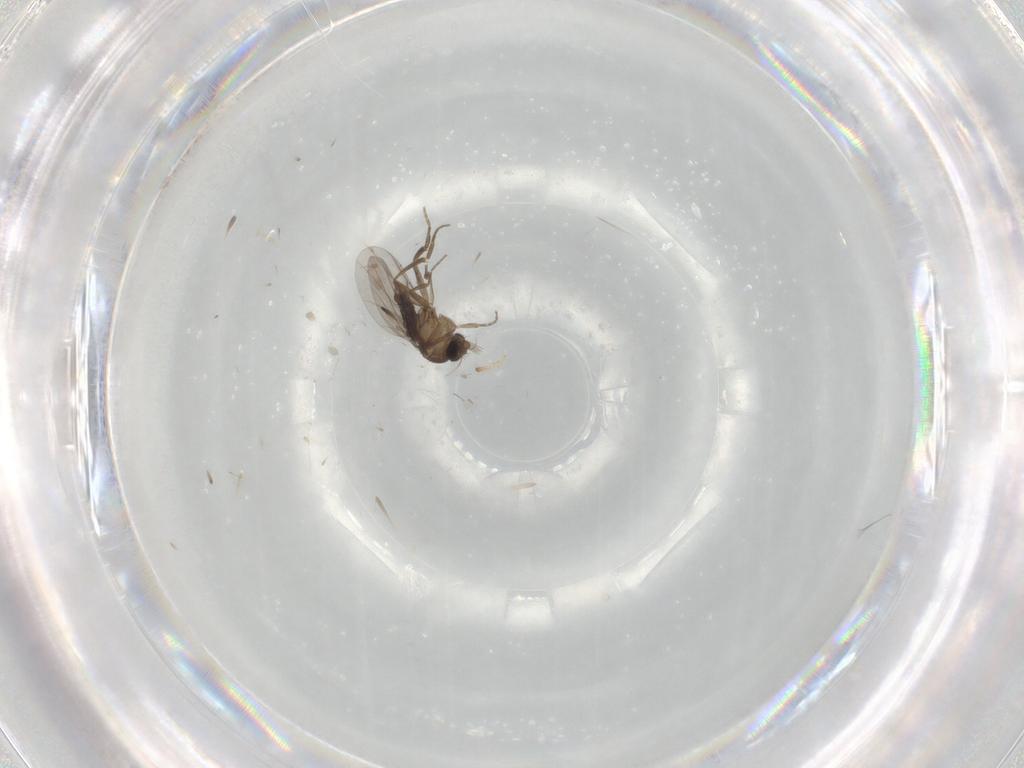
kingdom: Animalia
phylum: Arthropoda
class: Insecta
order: Diptera
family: Phoridae
